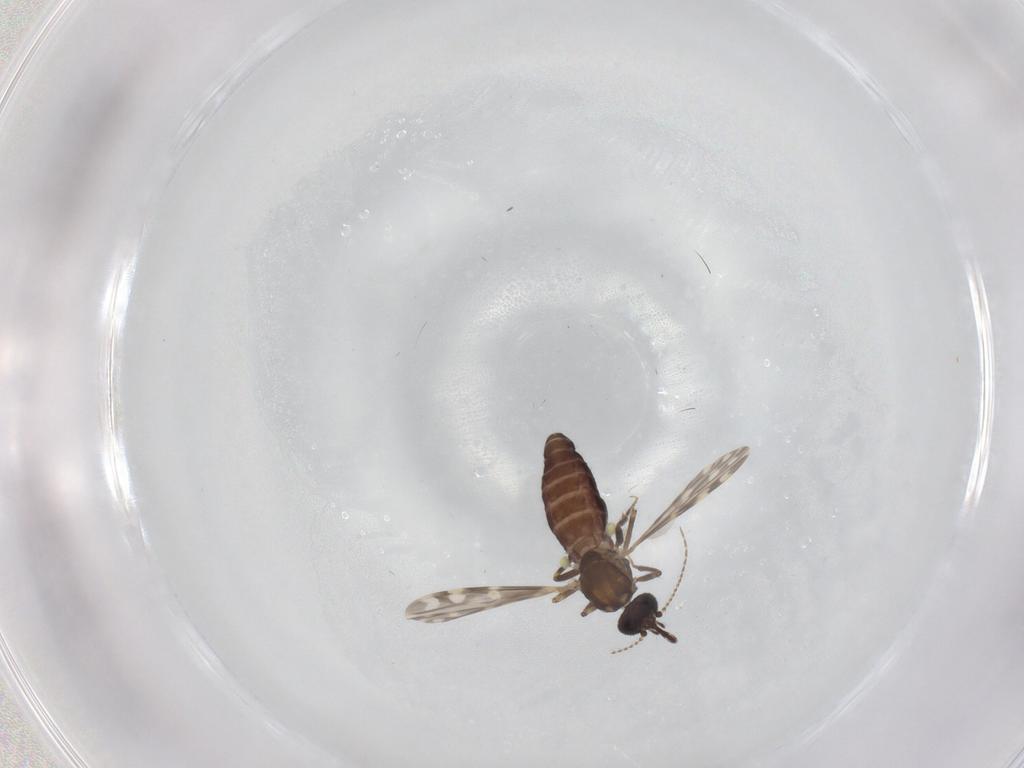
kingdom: Animalia
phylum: Arthropoda
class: Insecta
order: Diptera
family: Ceratopogonidae
